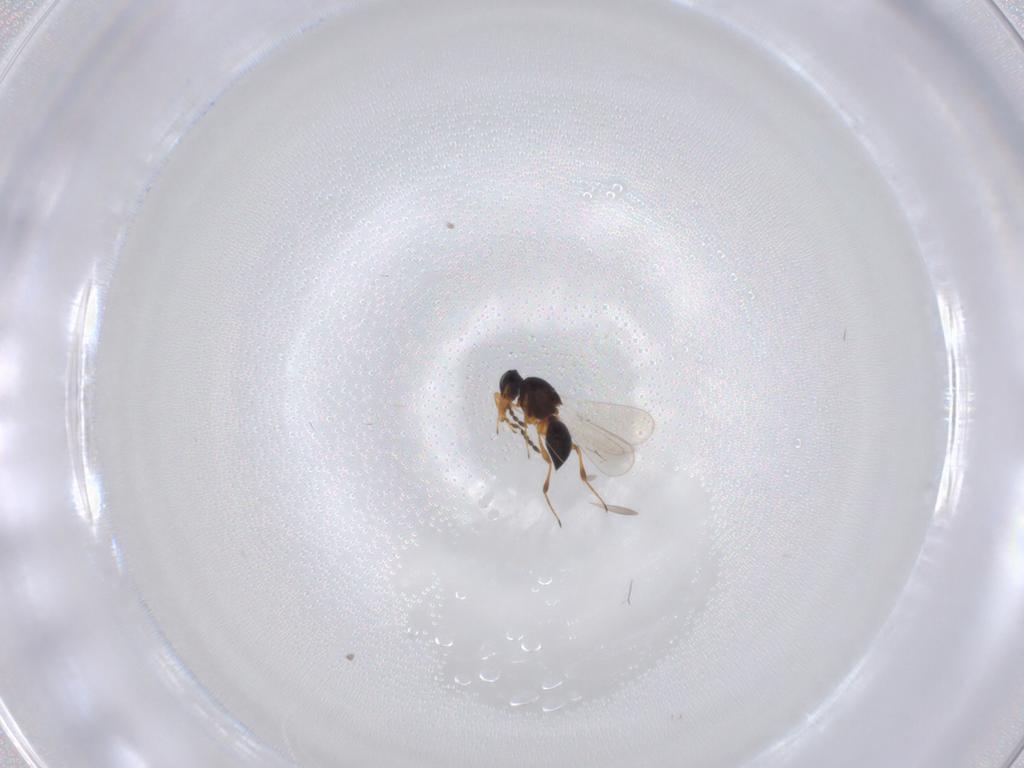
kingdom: Animalia
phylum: Arthropoda
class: Insecta
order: Hymenoptera
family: Platygastridae
